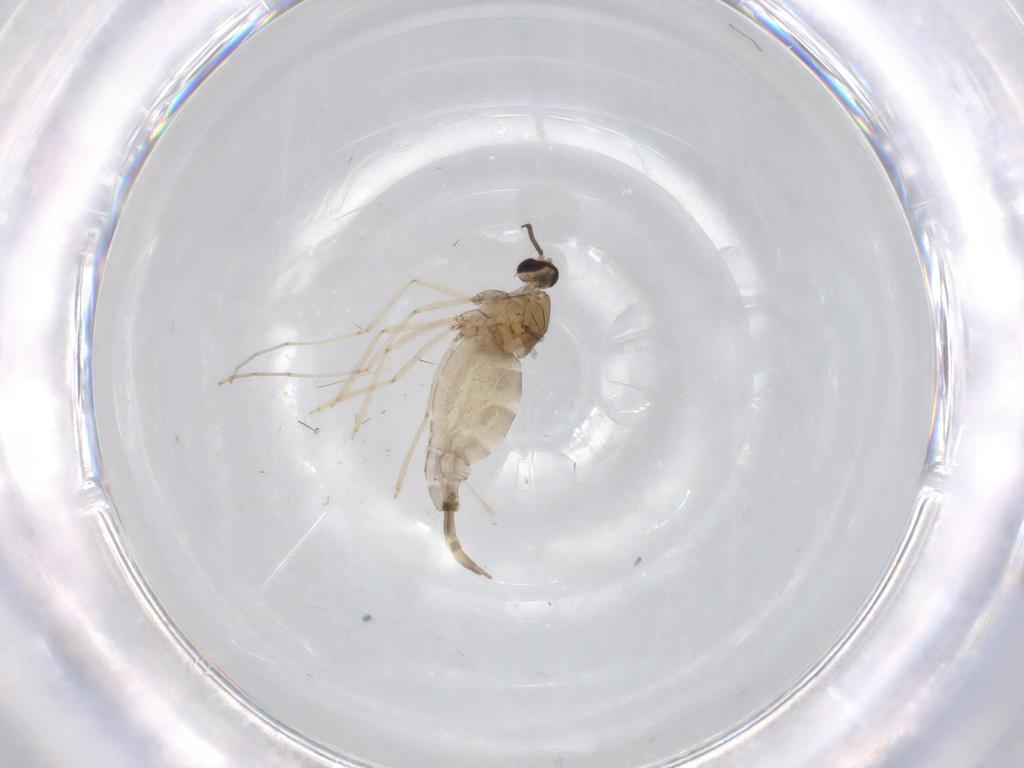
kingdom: Animalia
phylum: Arthropoda
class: Insecta
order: Diptera
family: Cecidomyiidae
